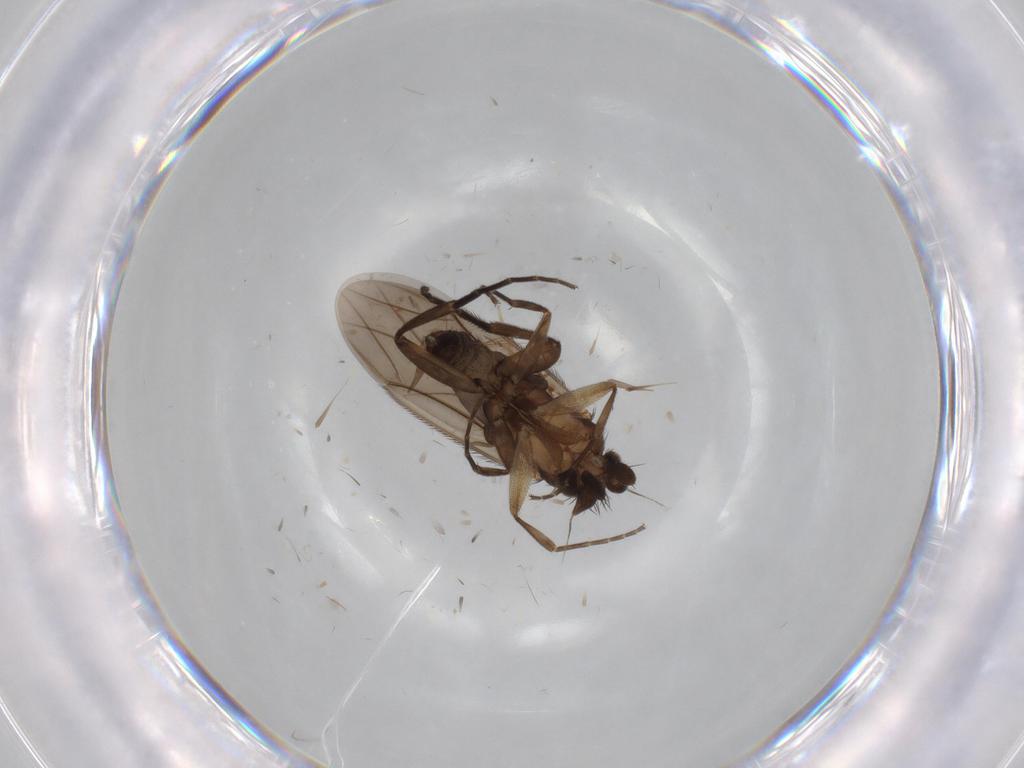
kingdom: Animalia
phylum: Arthropoda
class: Insecta
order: Diptera
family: Phoridae
